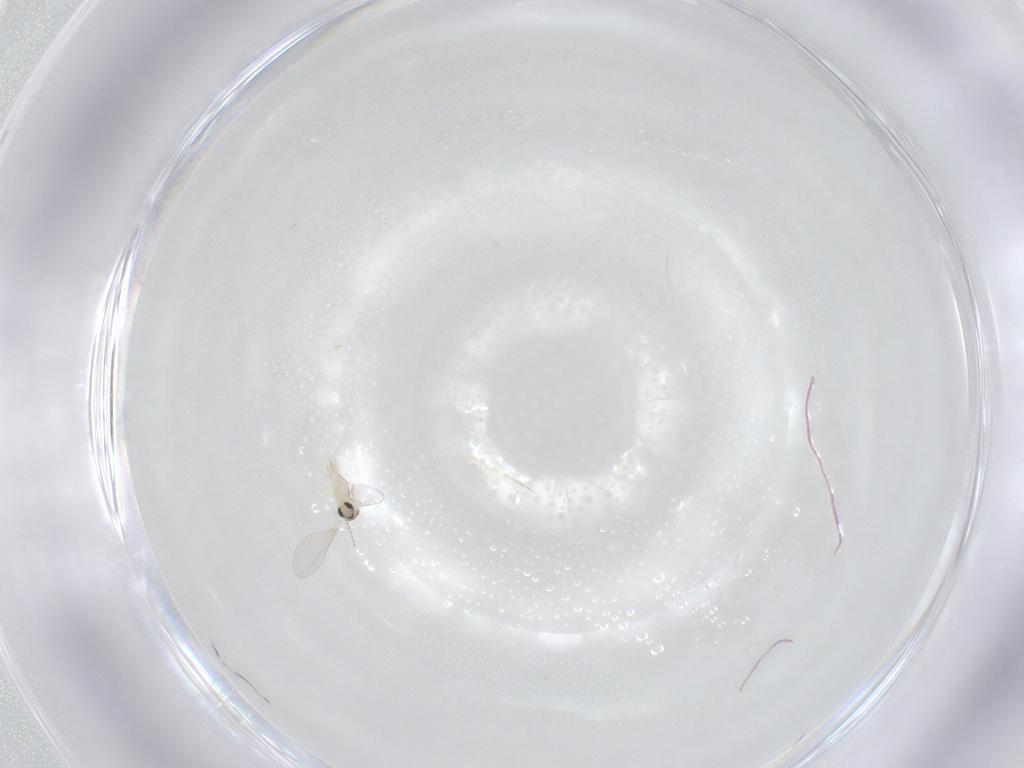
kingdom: Animalia
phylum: Arthropoda
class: Insecta
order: Diptera
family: Cecidomyiidae
